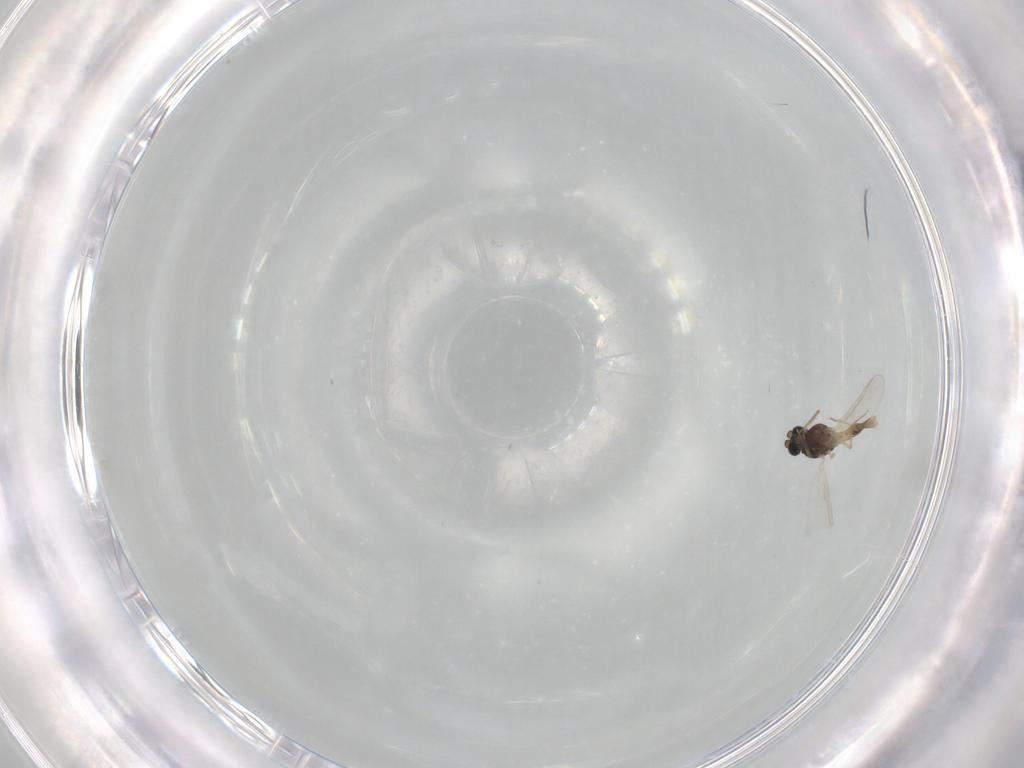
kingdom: Animalia
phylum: Arthropoda
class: Insecta
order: Diptera
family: Chironomidae
